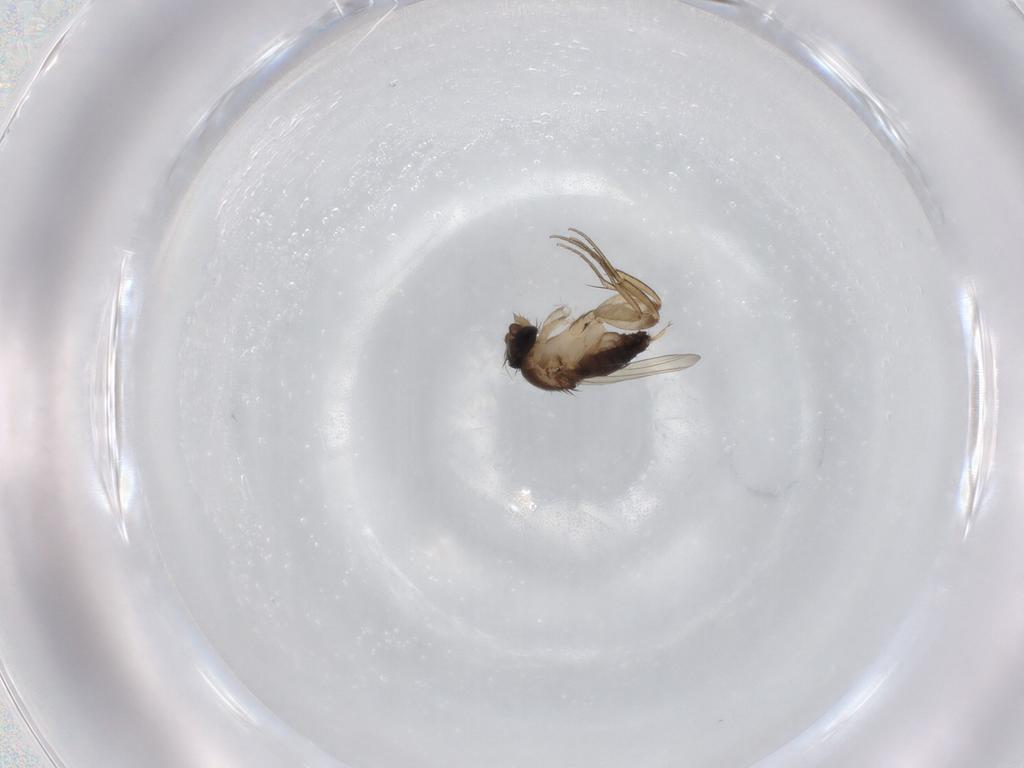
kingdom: Animalia
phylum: Arthropoda
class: Insecta
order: Diptera
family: Phoridae
